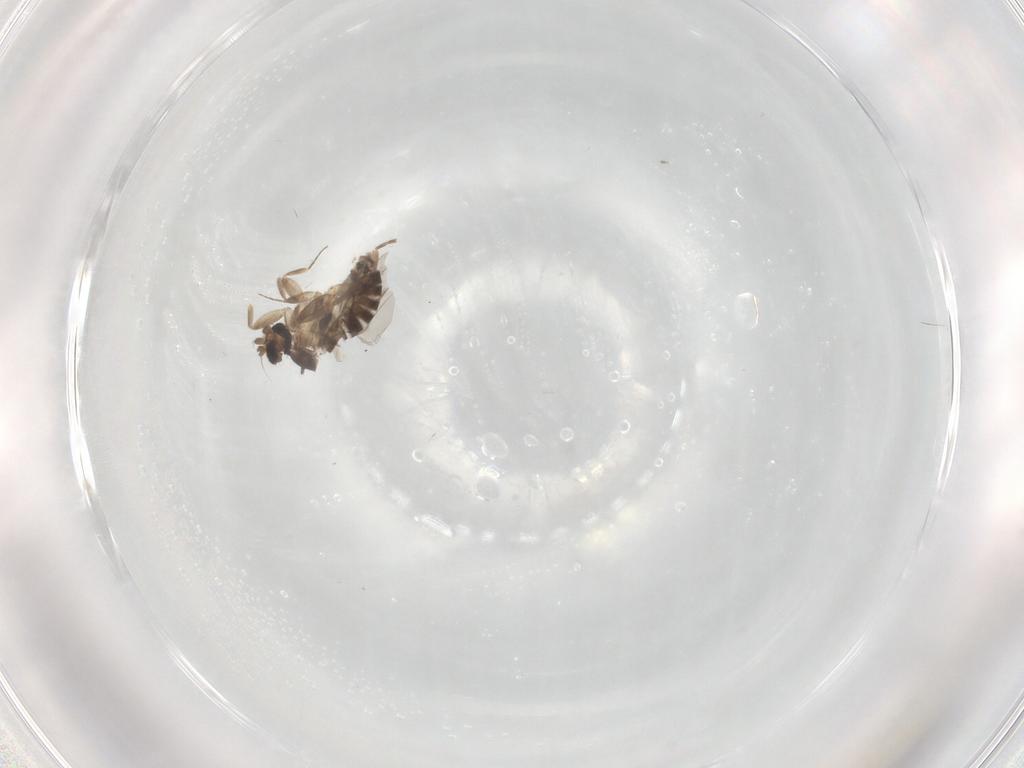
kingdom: Animalia
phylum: Arthropoda
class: Insecta
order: Diptera
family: Phoridae
